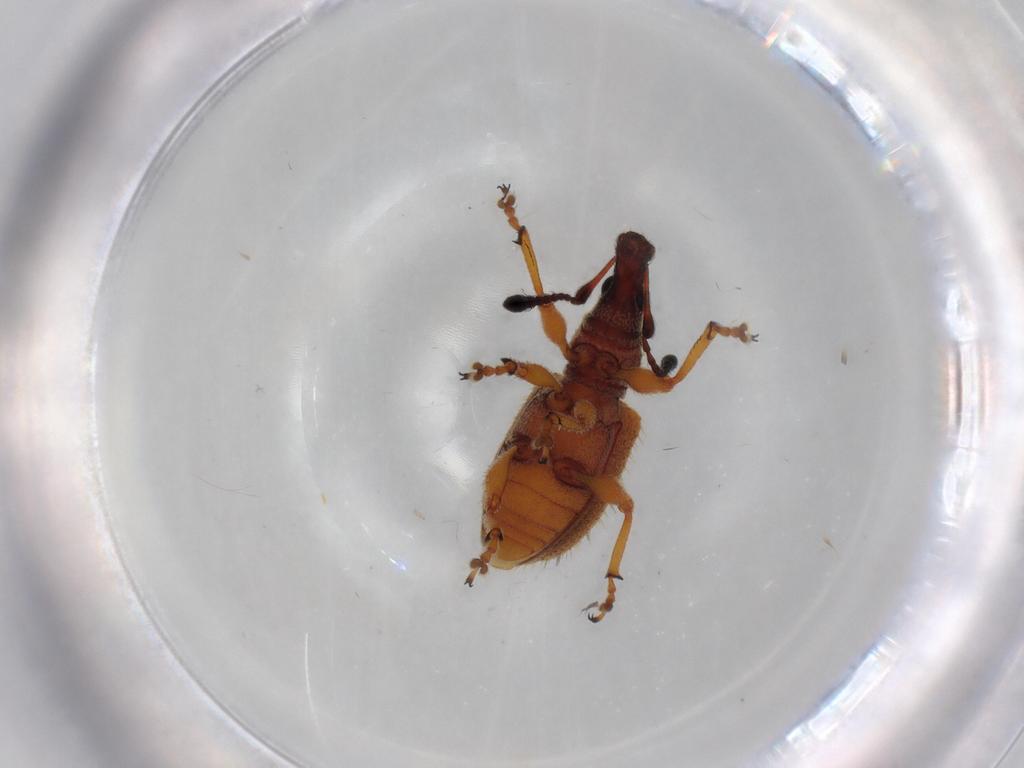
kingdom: Animalia
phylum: Arthropoda
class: Insecta
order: Coleoptera
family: Curculionidae
